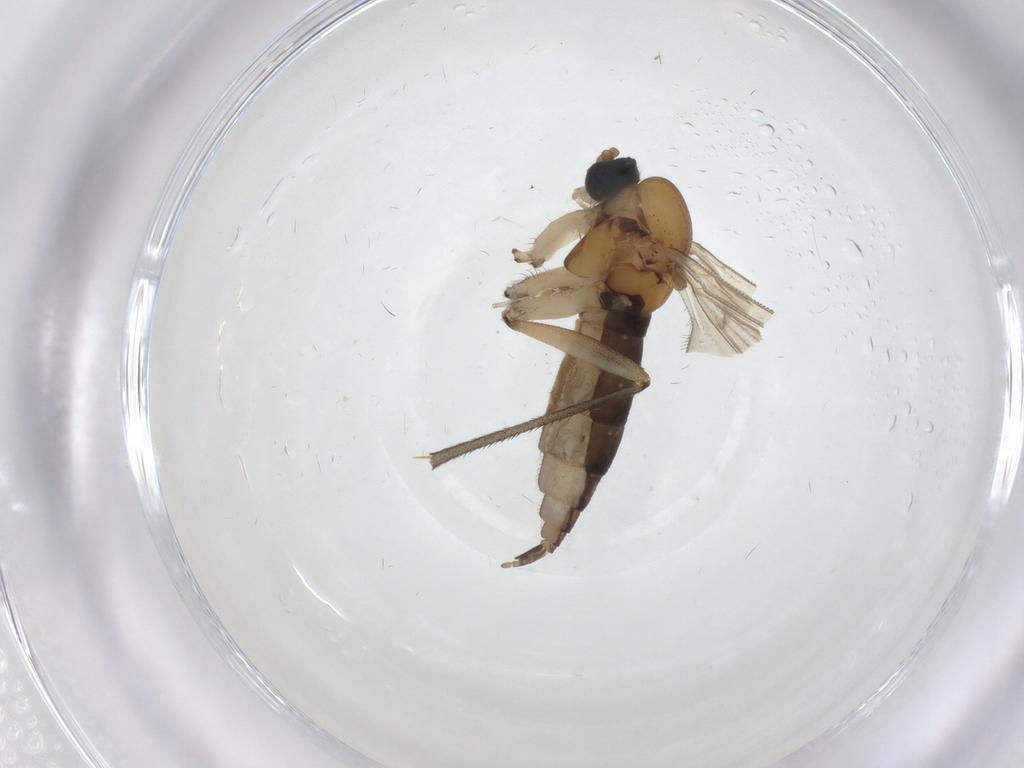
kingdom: Animalia
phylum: Arthropoda
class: Insecta
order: Diptera
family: Sciaridae
